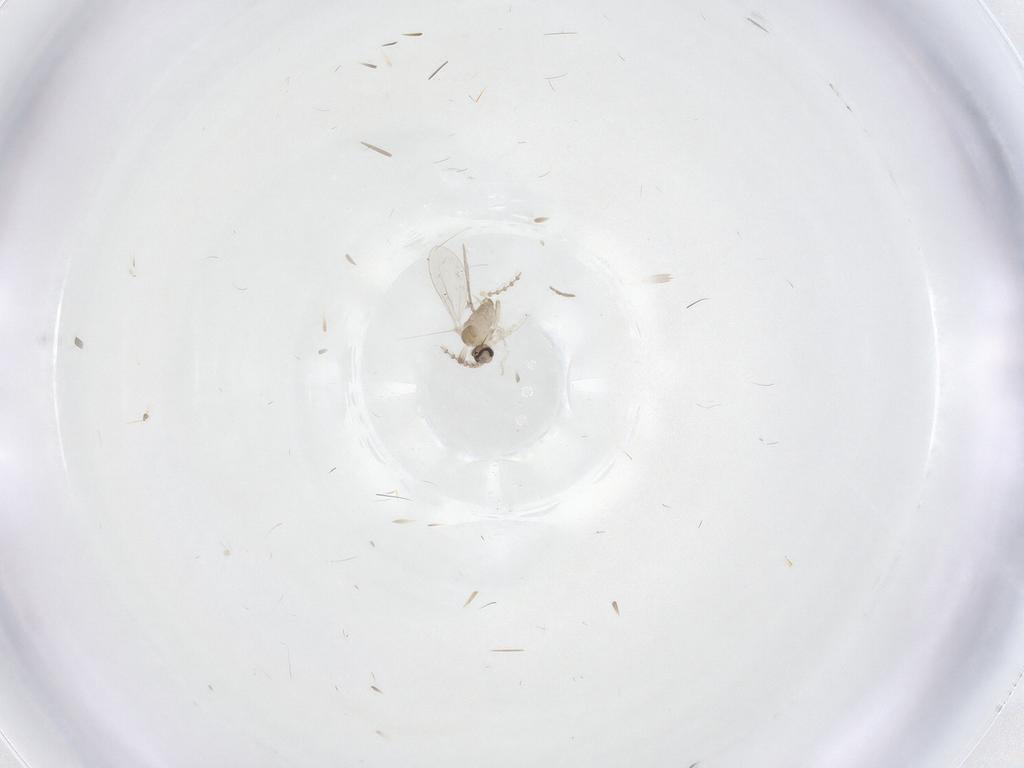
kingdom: Animalia
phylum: Arthropoda
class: Insecta
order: Diptera
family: Cecidomyiidae
